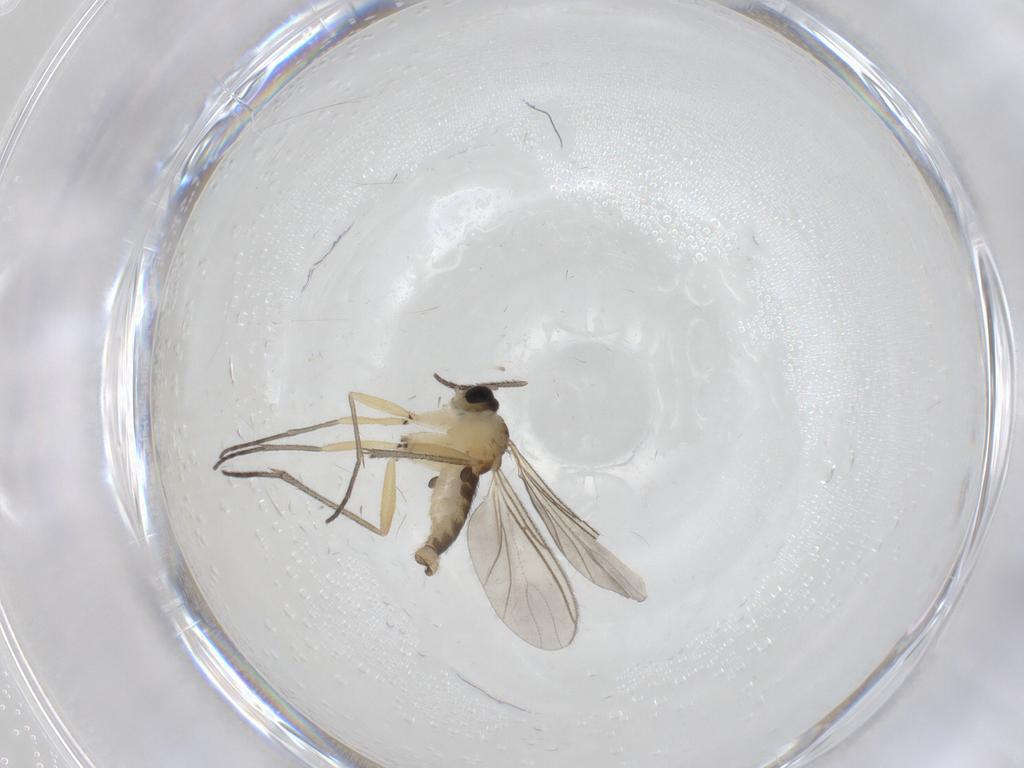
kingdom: Animalia
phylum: Arthropoda
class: Insecta
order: Diptera
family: Sciaridae
